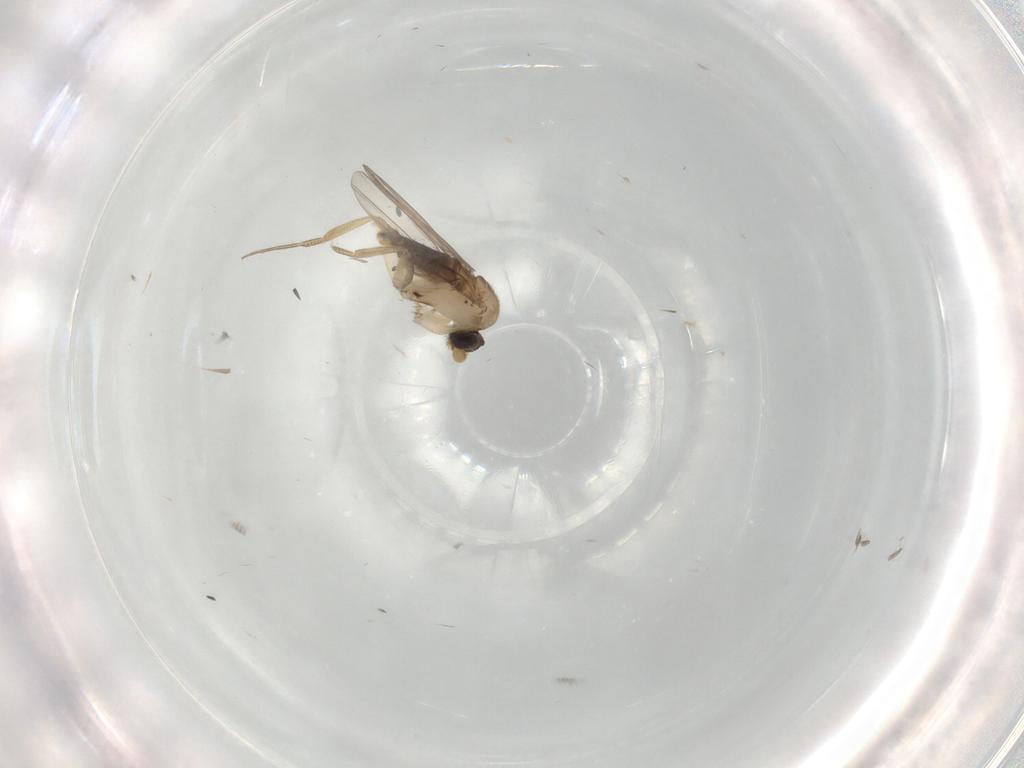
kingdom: Animalia
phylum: Arthropoda
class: Insecta
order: Diptera
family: Phoridae
